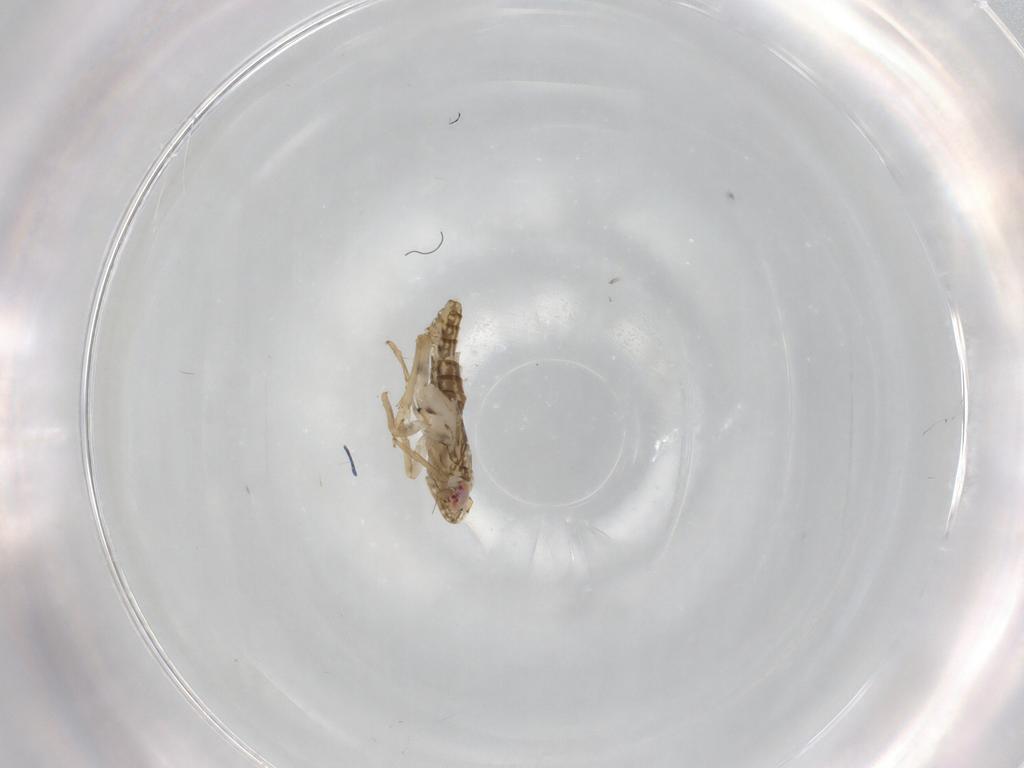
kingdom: Animalia
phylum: Arthropoda
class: Insecta
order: Hemiptera
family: Delphacidae
